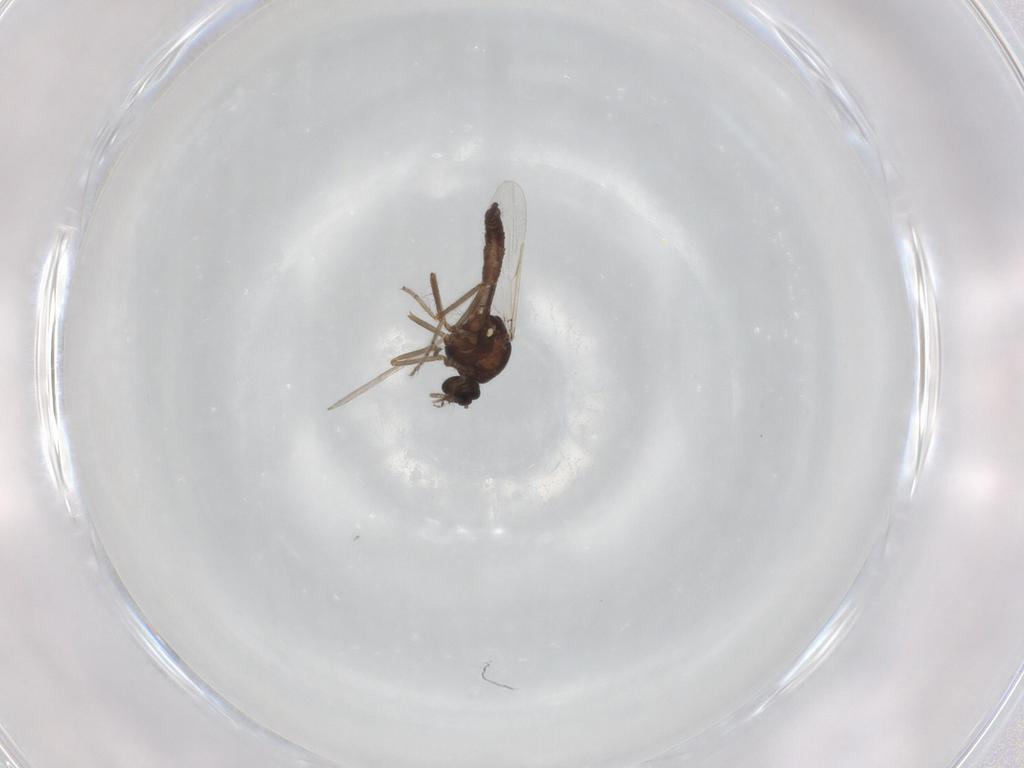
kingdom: Animalia
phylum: Arthropoda
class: Insecta
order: Diptera
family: Ceratopogonidae
